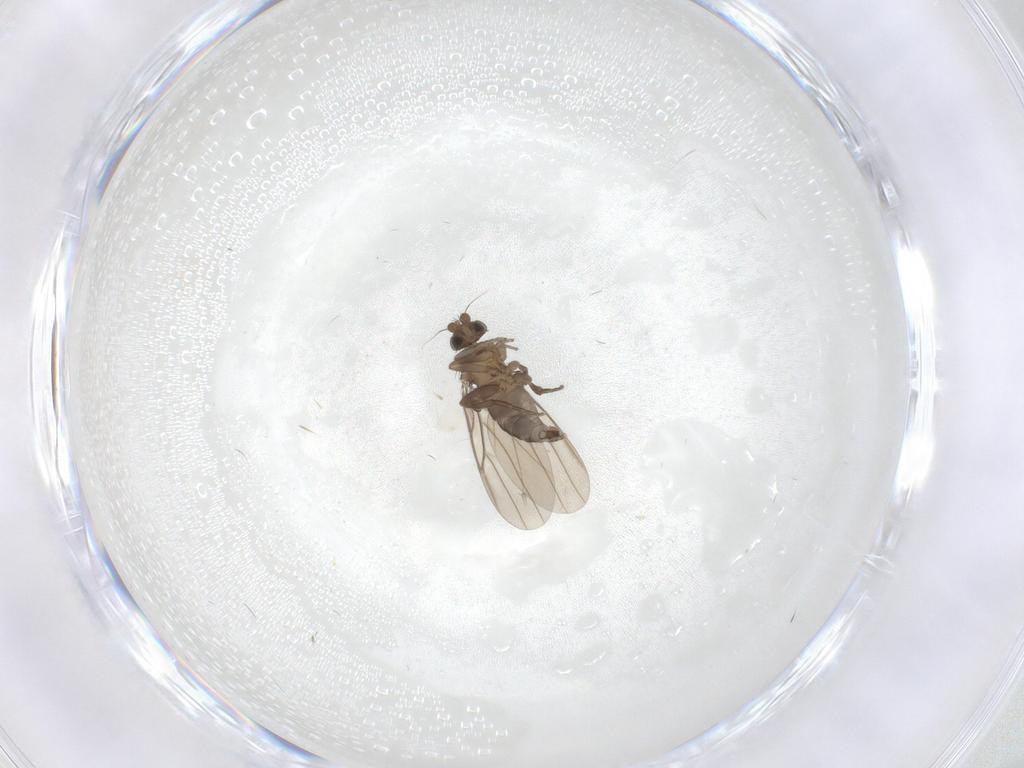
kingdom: Animalia
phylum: Arthropoda
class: Insecta
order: Diptera
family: Phoridae
